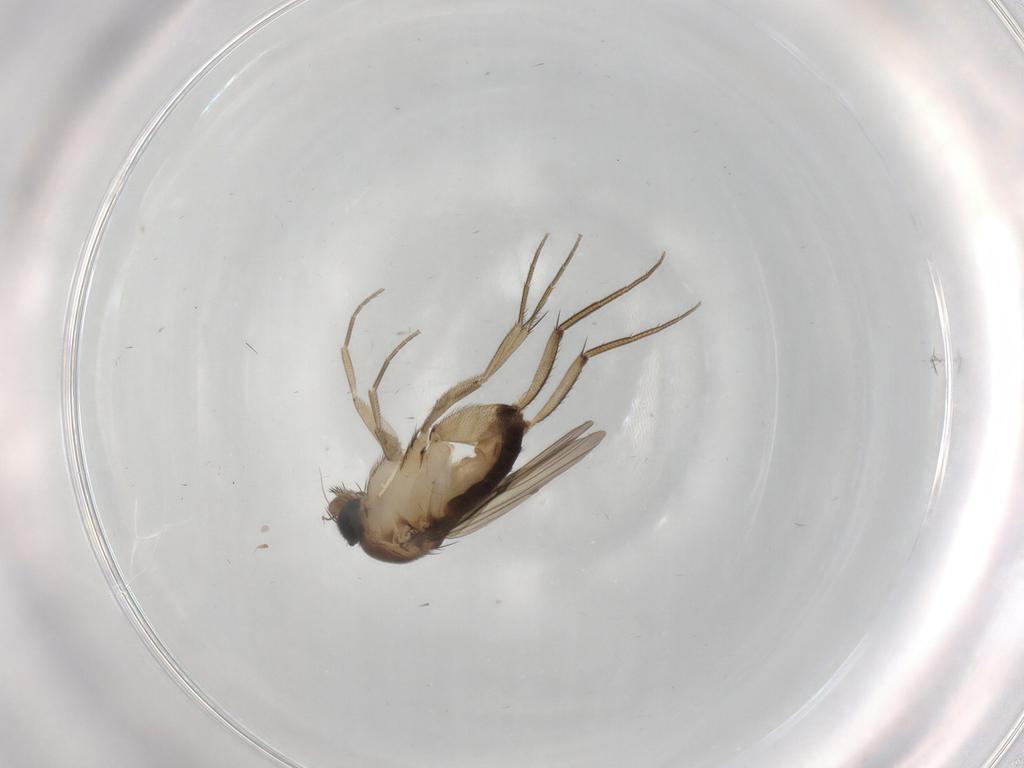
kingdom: Animalia
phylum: Arthropoda
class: Insecta
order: Diptera
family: Phoridae
